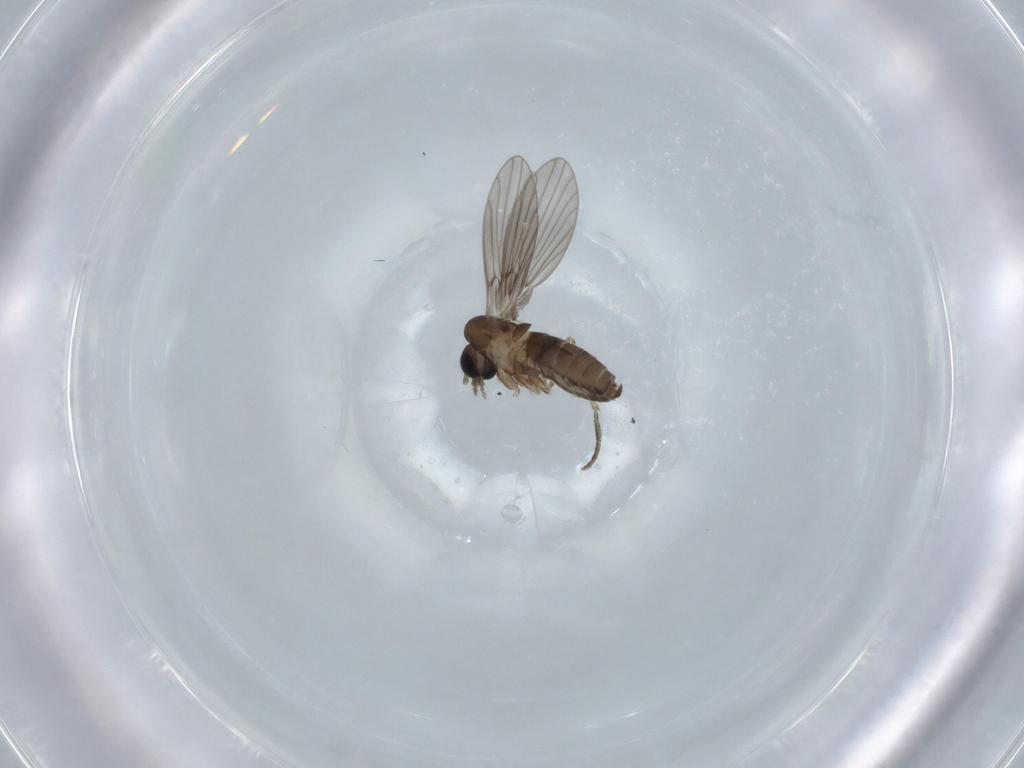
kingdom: Animalia
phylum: Arthropoda
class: Insecta
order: Diptera
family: Psychodidae
